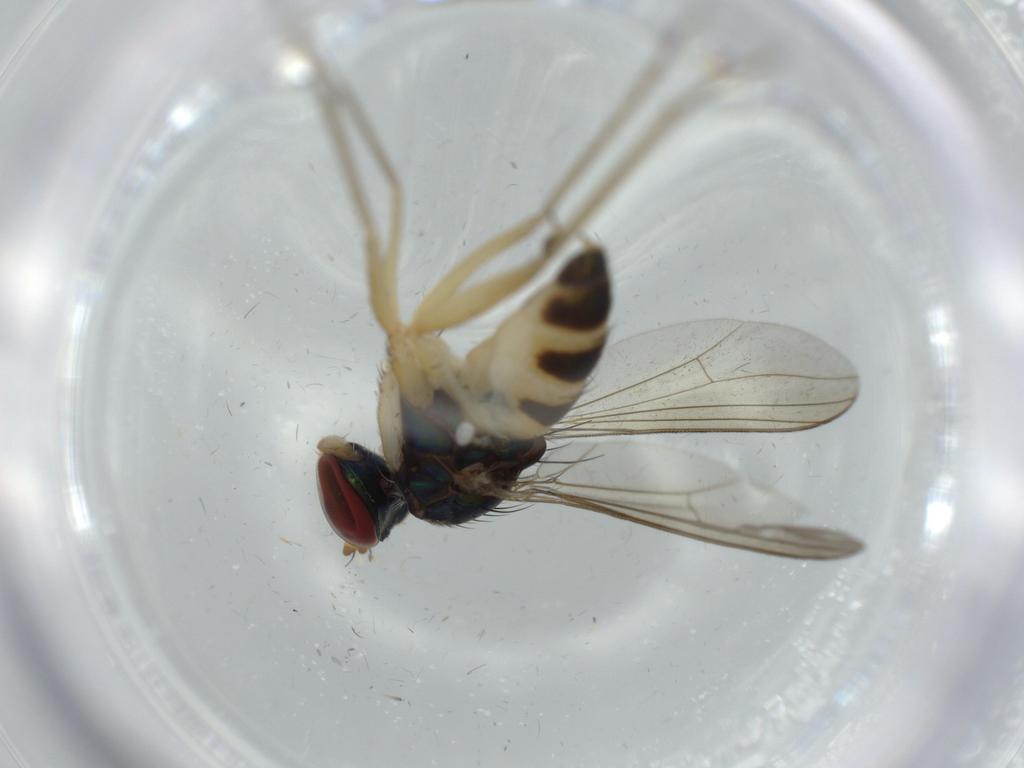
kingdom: Animalia
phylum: Arthropoda
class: Insecta
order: Diptera
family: Dolichopodidae
